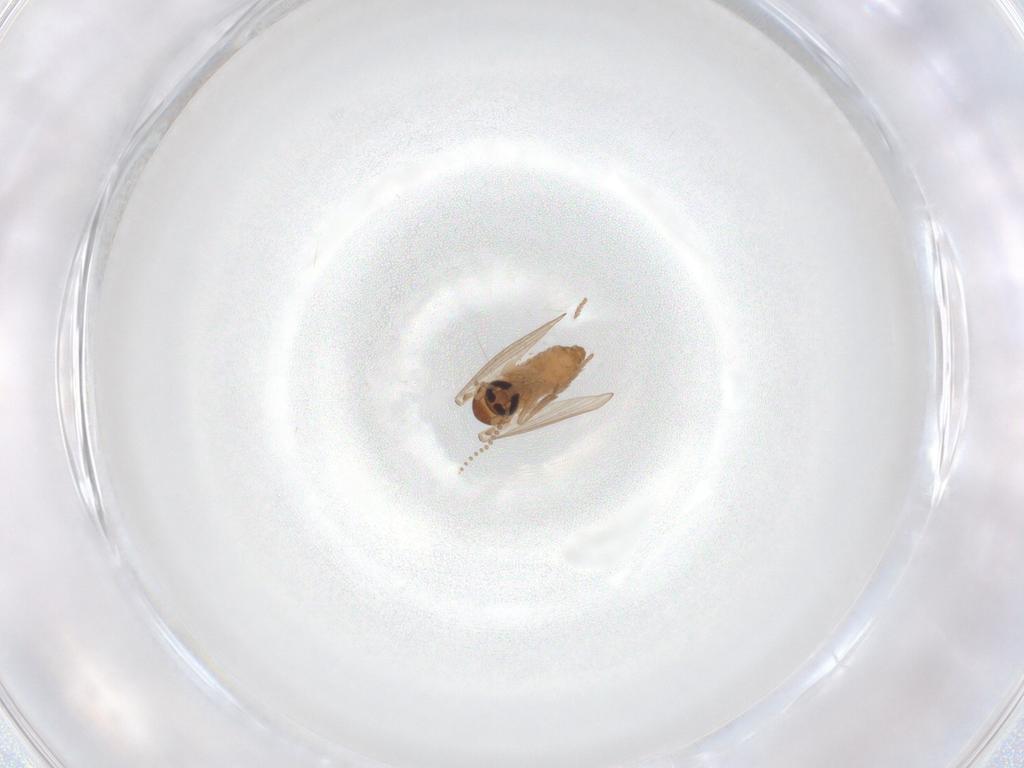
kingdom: Animalia
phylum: Arthropoda
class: Insecta
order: Diptera
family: Psychodidae
